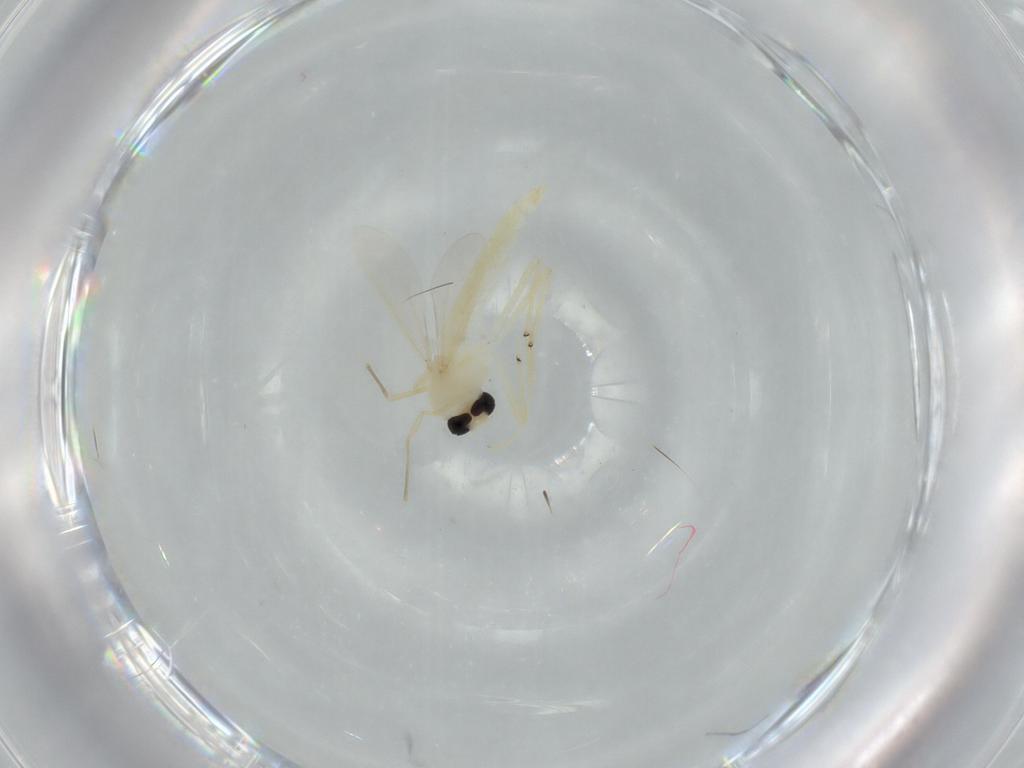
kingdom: Animalia
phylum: Arthropoda
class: Insecta
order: Diptera
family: Chironomidae
